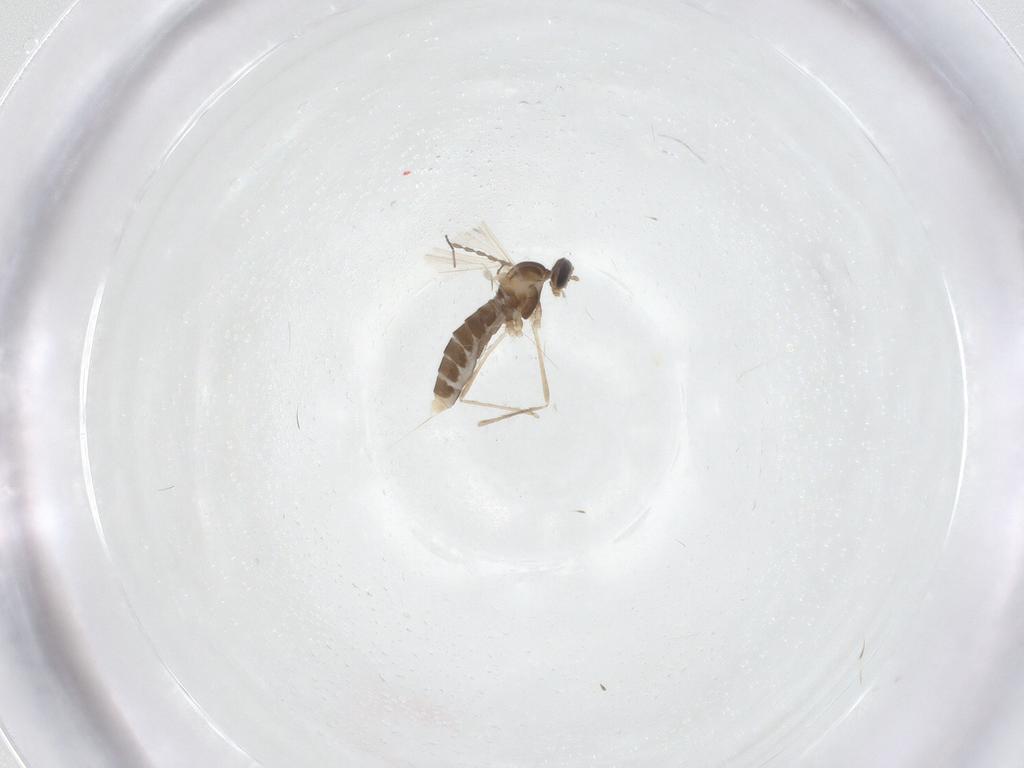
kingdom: Animalia
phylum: Arthropoda
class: Insecta
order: Diptera
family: Cecidomyiidae
